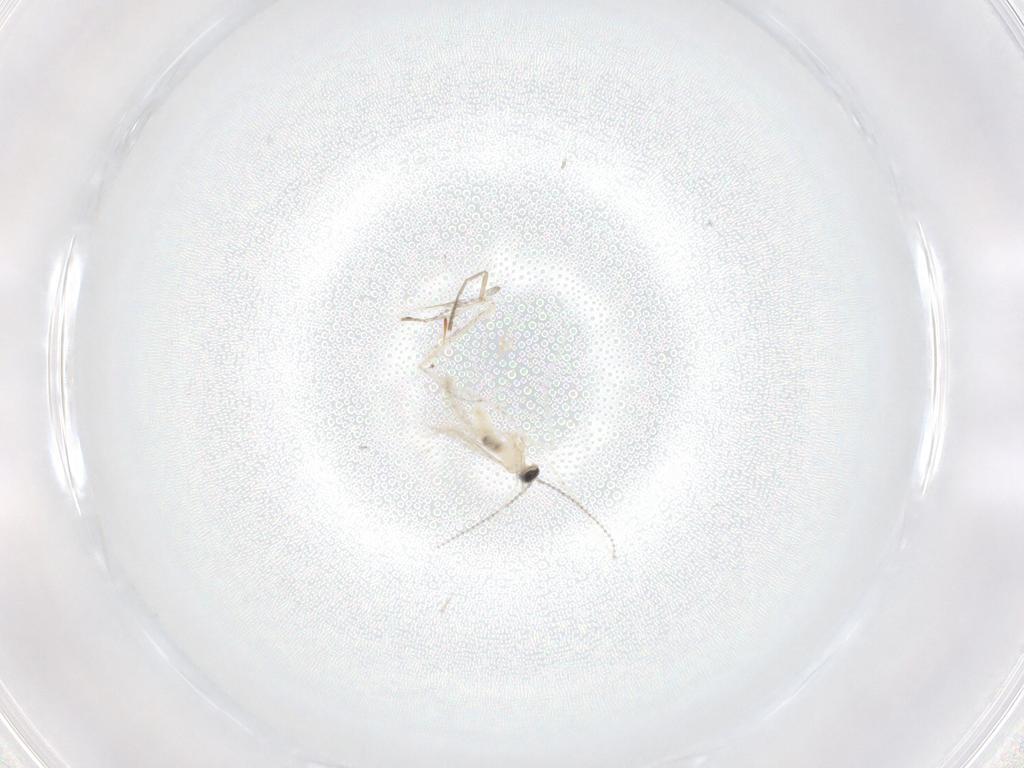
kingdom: Animalia
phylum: Arthropoda
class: Insecta
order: Diptera
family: Cecidomyiidae
